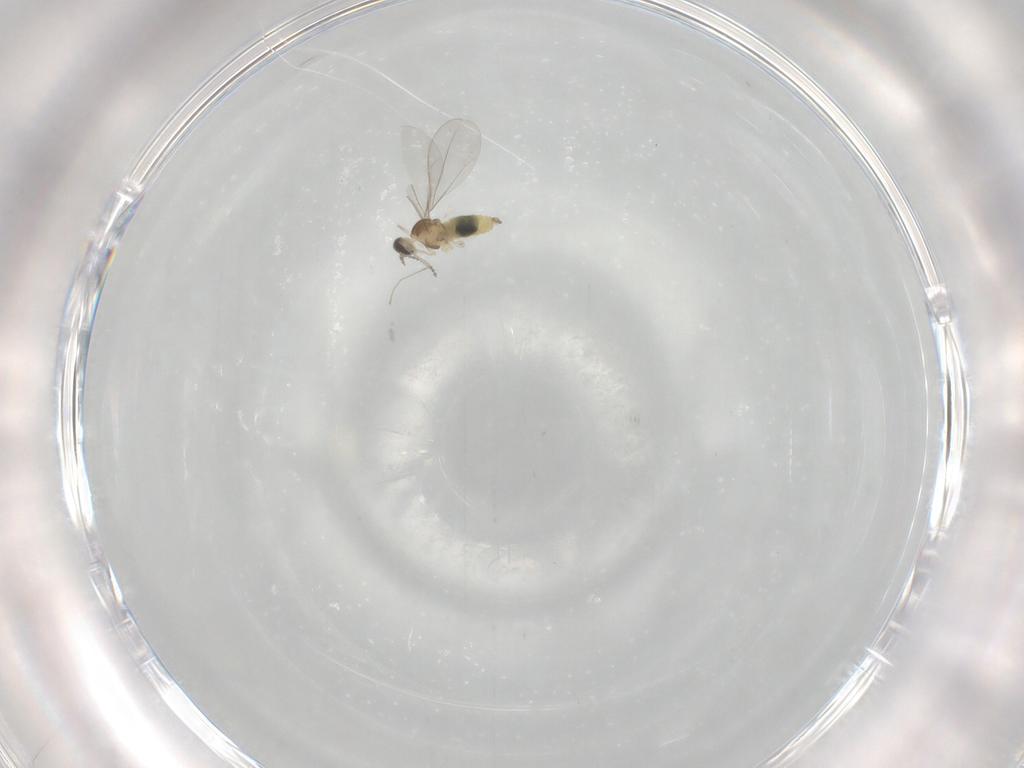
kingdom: Animalia
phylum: Arthropoda
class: Insecta
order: Diptera
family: Cecidomyiidae
